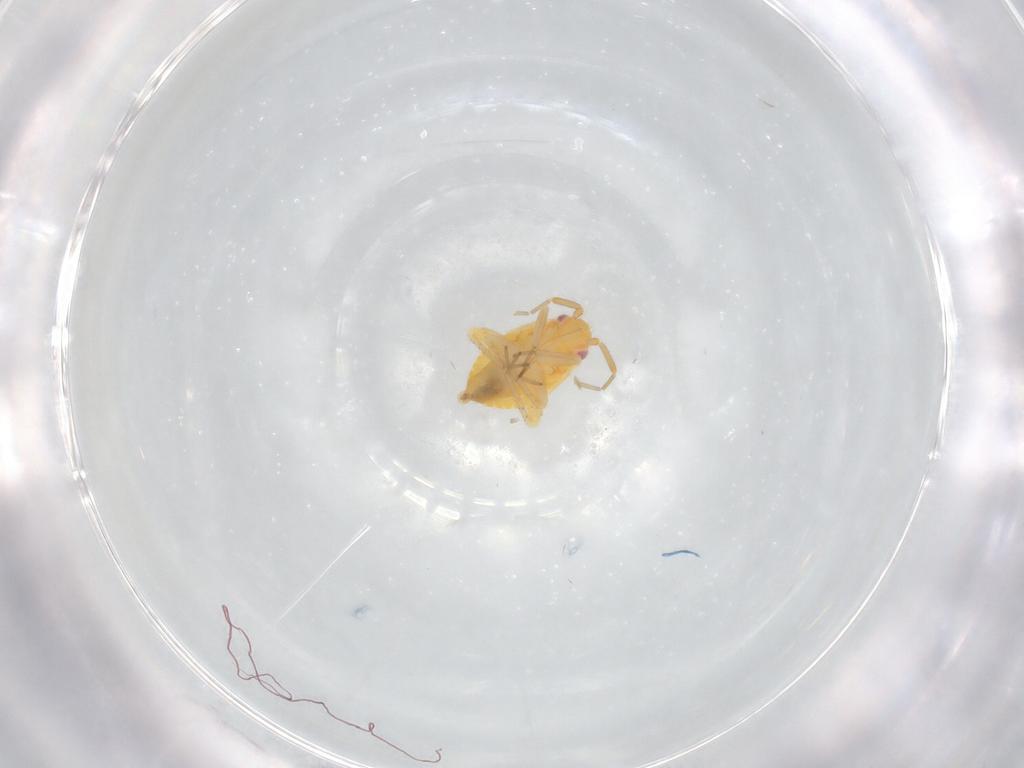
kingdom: Animalia
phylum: Arthropoda
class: Insecta
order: Hemiptera
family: Miridae
